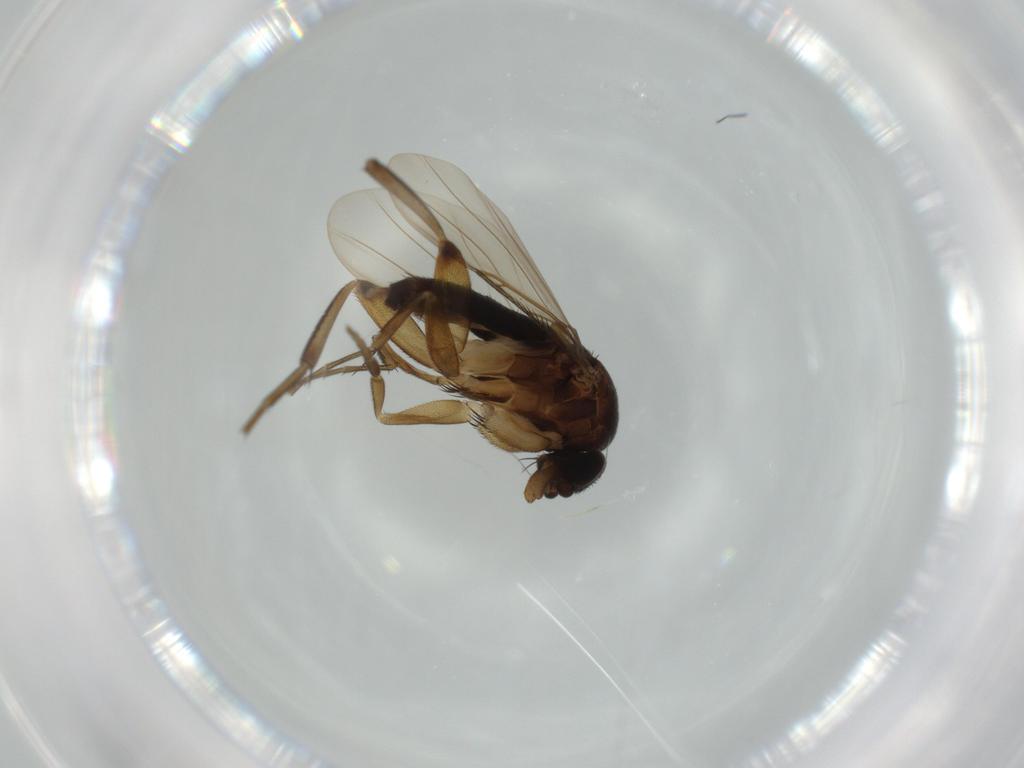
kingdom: Animalia
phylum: Arthropoda
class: Insecta
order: Diptera
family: Phoridae
